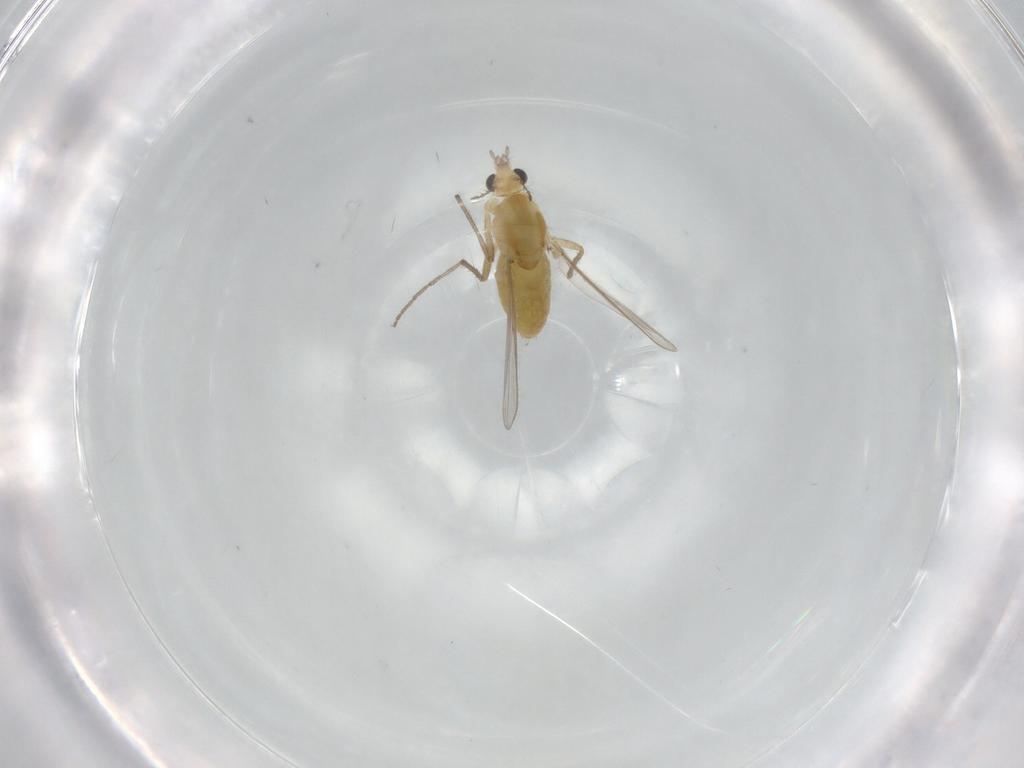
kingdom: Animalia
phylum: Arthropoda
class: Insecta
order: Diptera
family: Chironomidae
